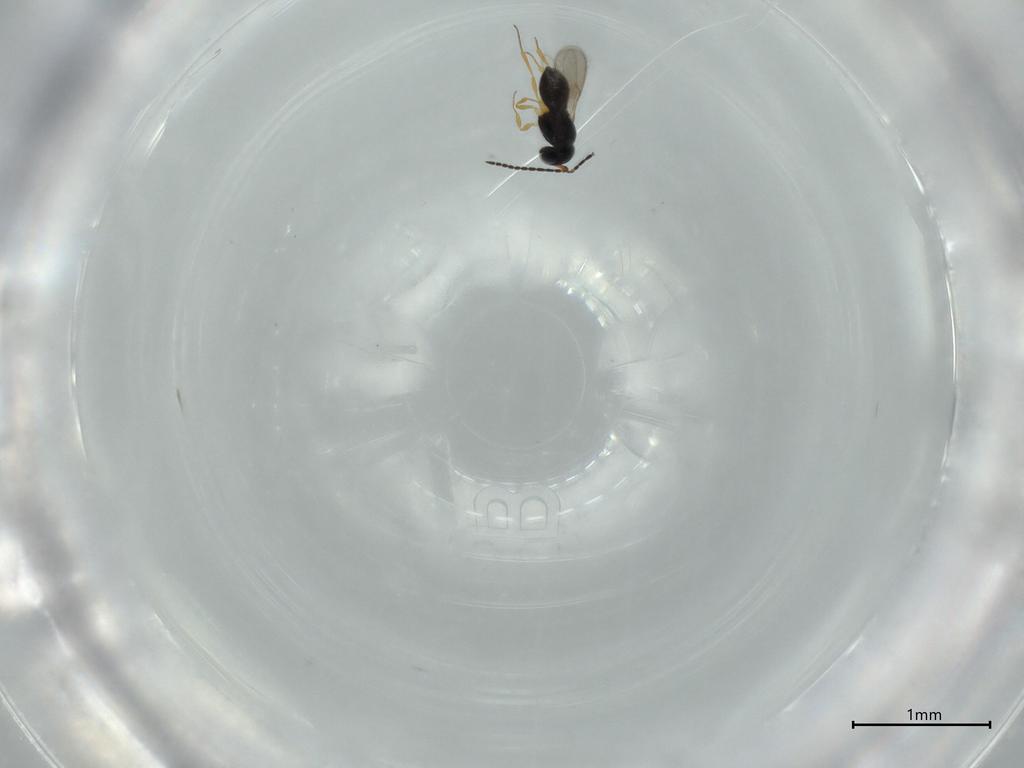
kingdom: Animalia
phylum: Arthropoda
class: Insecta
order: Hymenoptera
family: Scelionidae
